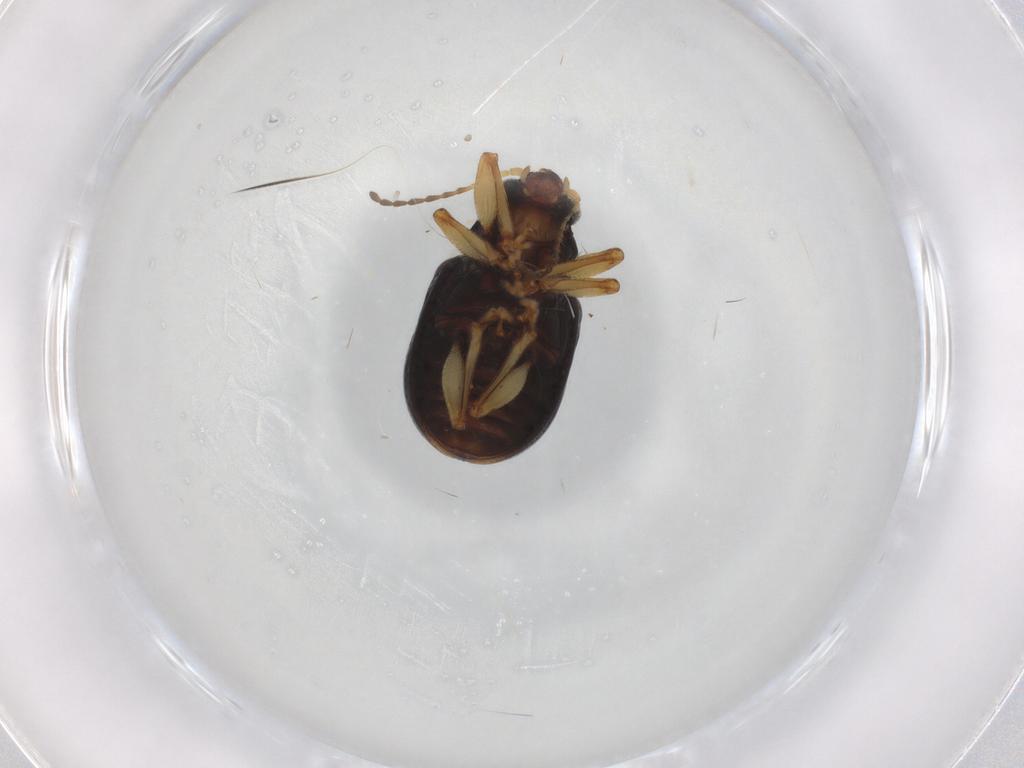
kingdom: Animalia
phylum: Arthropoda
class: Insecta
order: Coleoptera
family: Chrysomelidae
